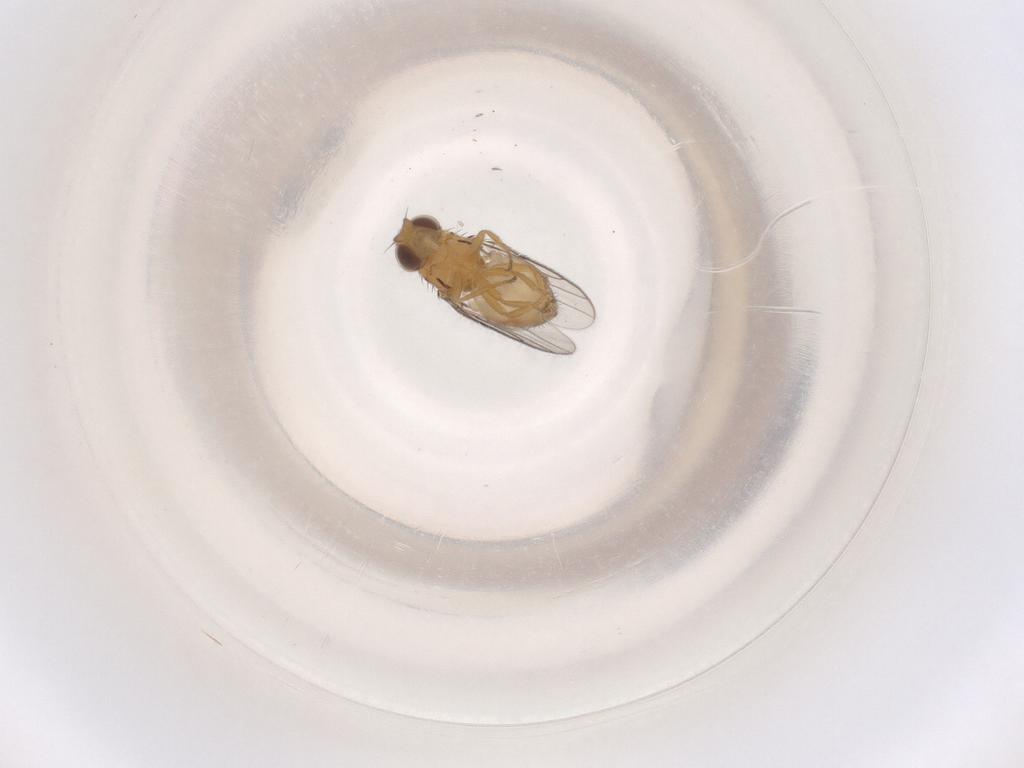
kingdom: Animalia
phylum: Arthropoda
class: Insecta
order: Diptera
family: Chloropidae
